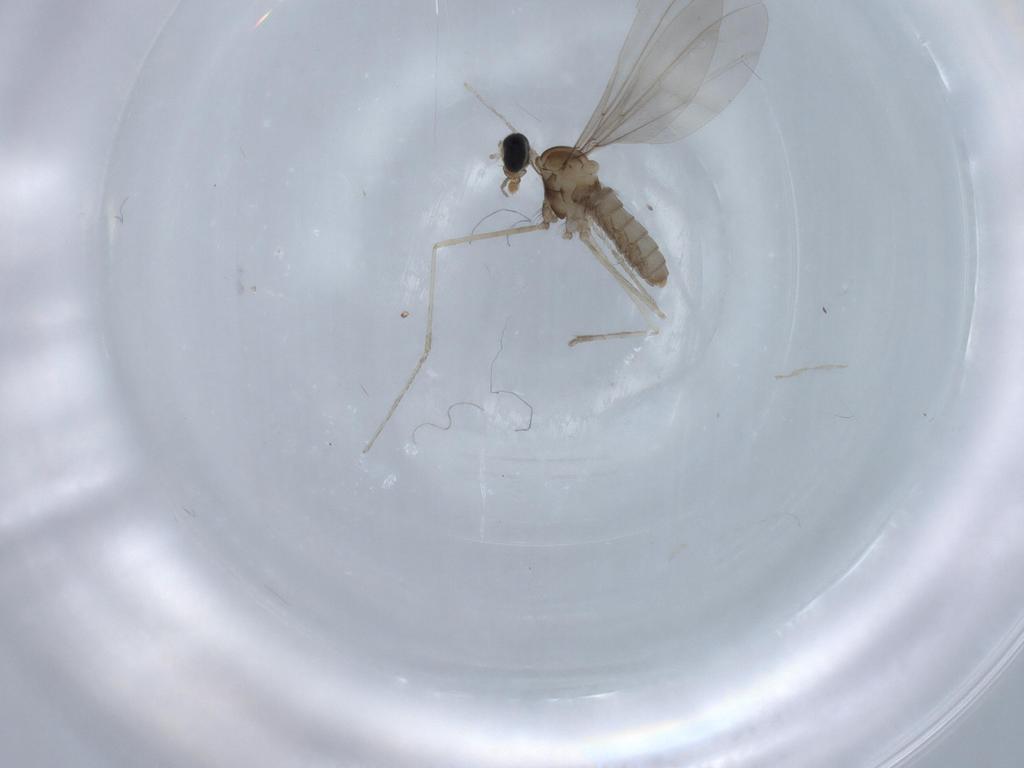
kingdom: Animalia
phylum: Arthropoda
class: Insecta
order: Diptera
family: Cecidomyiidae
